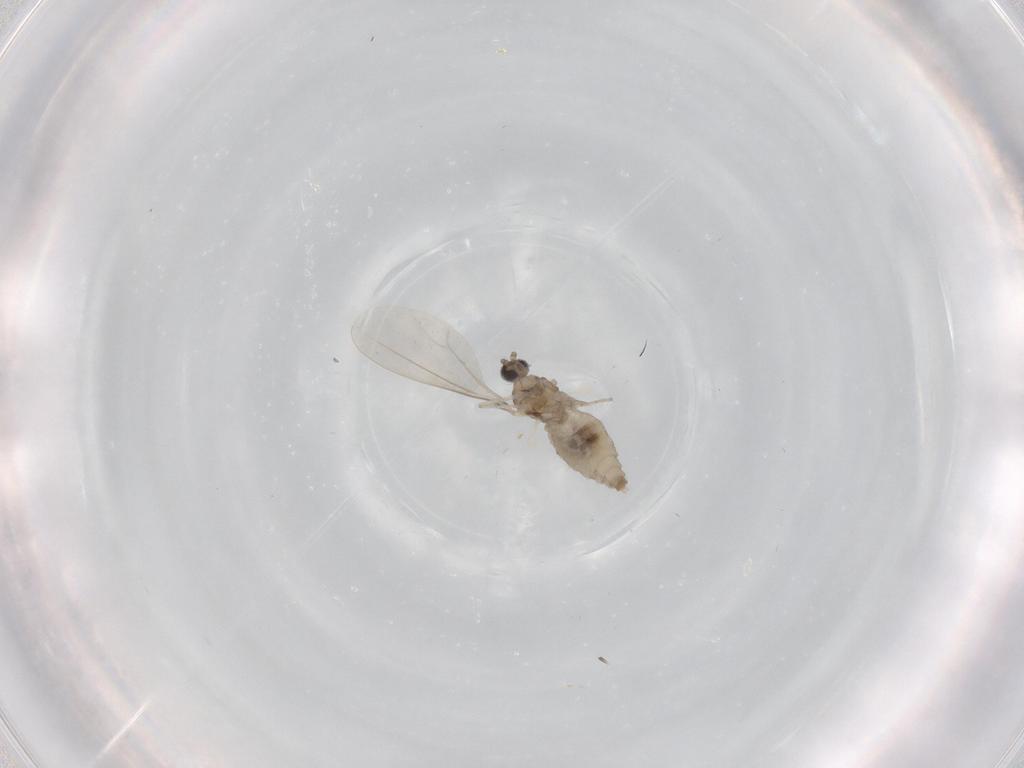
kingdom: Animalia
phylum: Arthropoda
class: Insecta
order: Diptera
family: Cecidomyiidae
